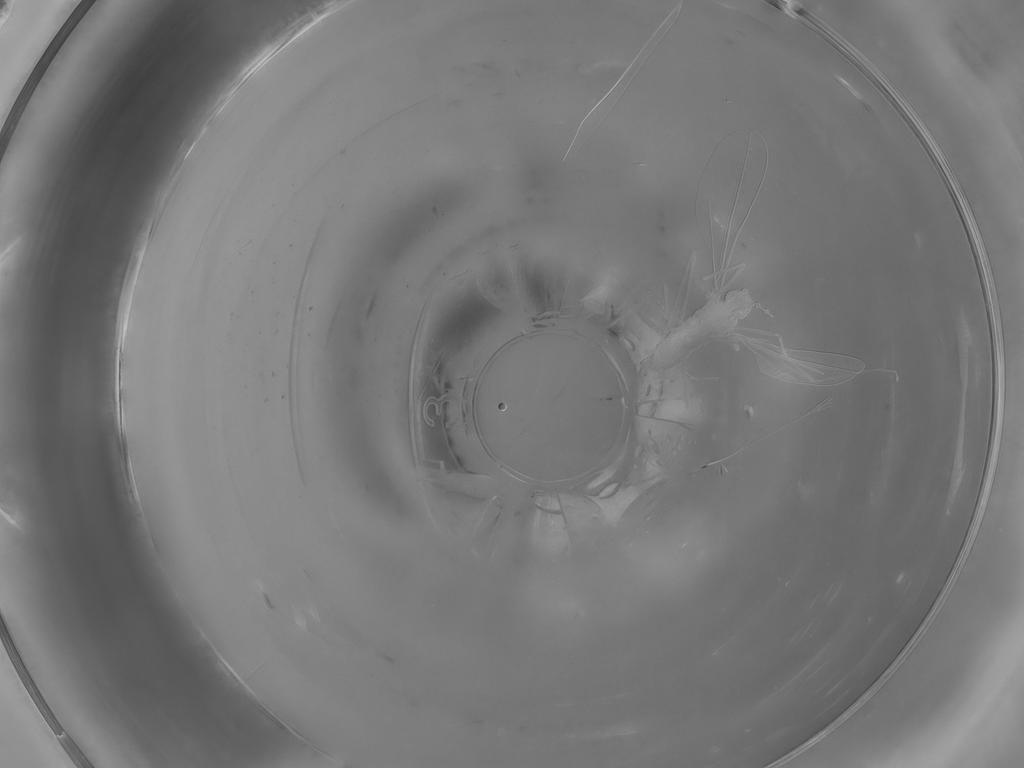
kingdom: Animalia
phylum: Arthropoda
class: Insecta
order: Diptera
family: Cecidomyiidae
